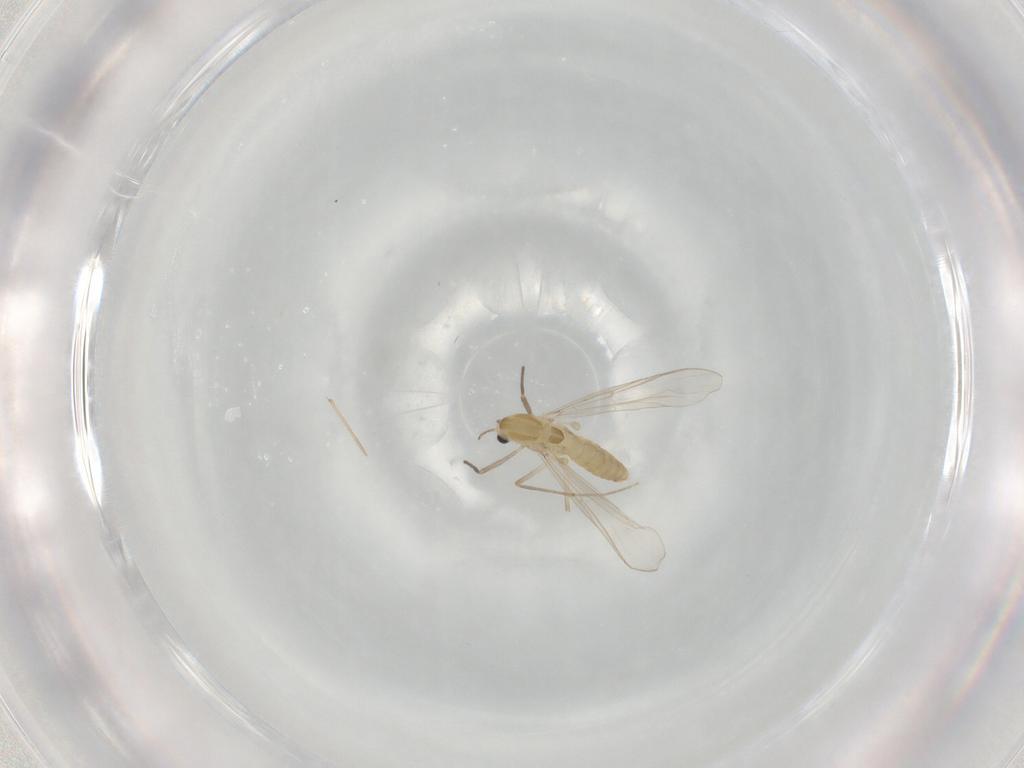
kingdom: Animalia
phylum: Arthropoda
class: Insecta
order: Diptera
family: Chironomidae
